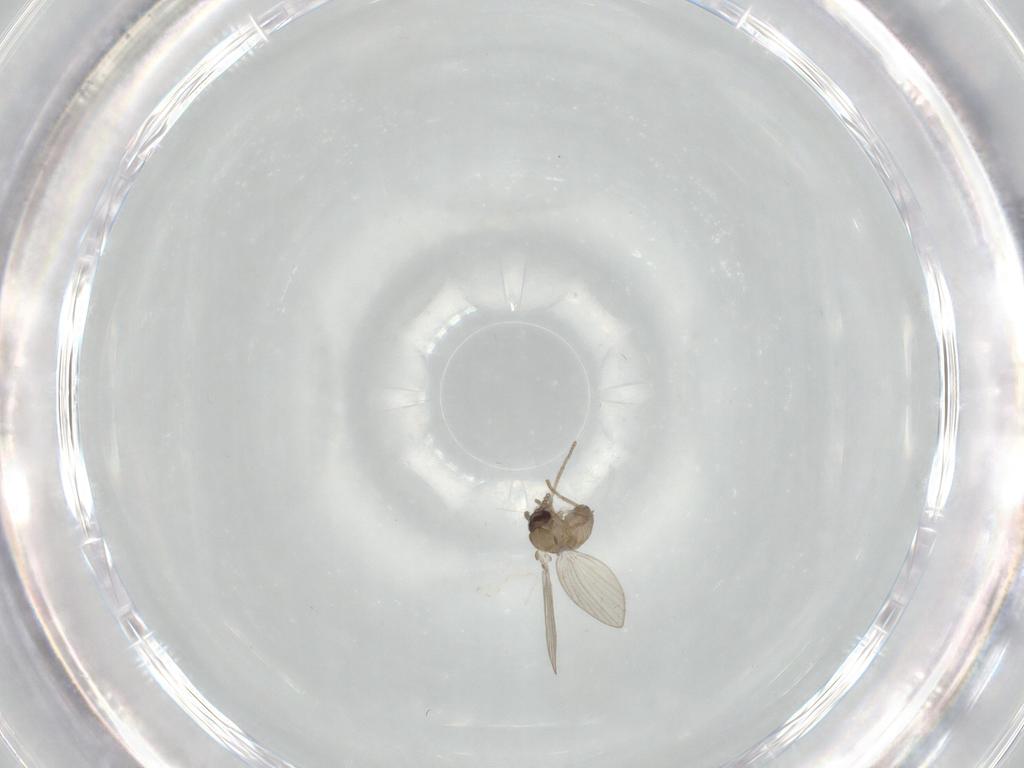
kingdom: Animalia
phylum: Arthropoda
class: Insecta
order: Diptera
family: Psychodidae
